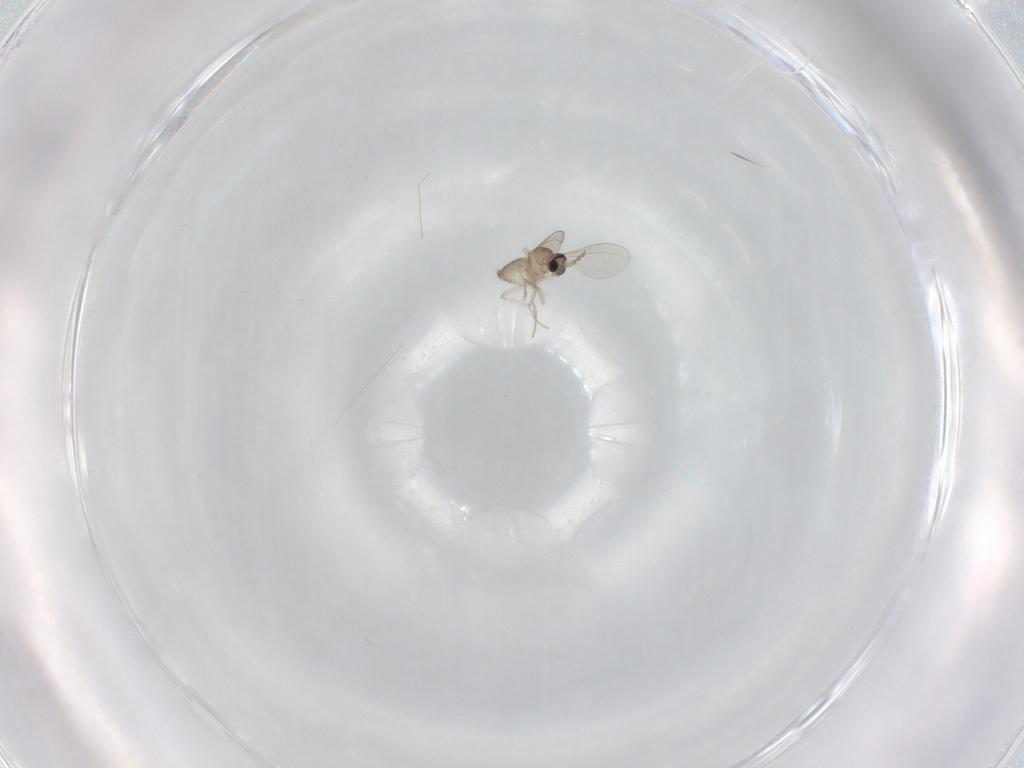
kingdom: Animalia
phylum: Arthropoda
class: Insecta
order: Diptera
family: Cecidomyiidae
